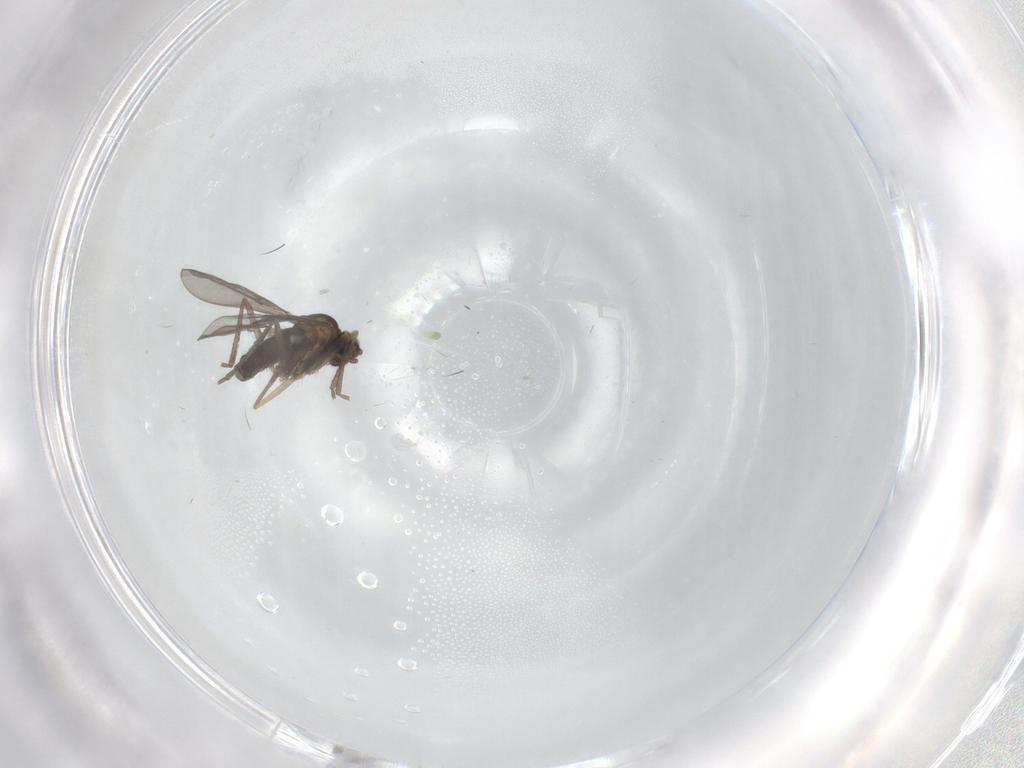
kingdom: Animalia
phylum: Arthropoda
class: Insecta
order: Diptera
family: Cecidomyiidae
